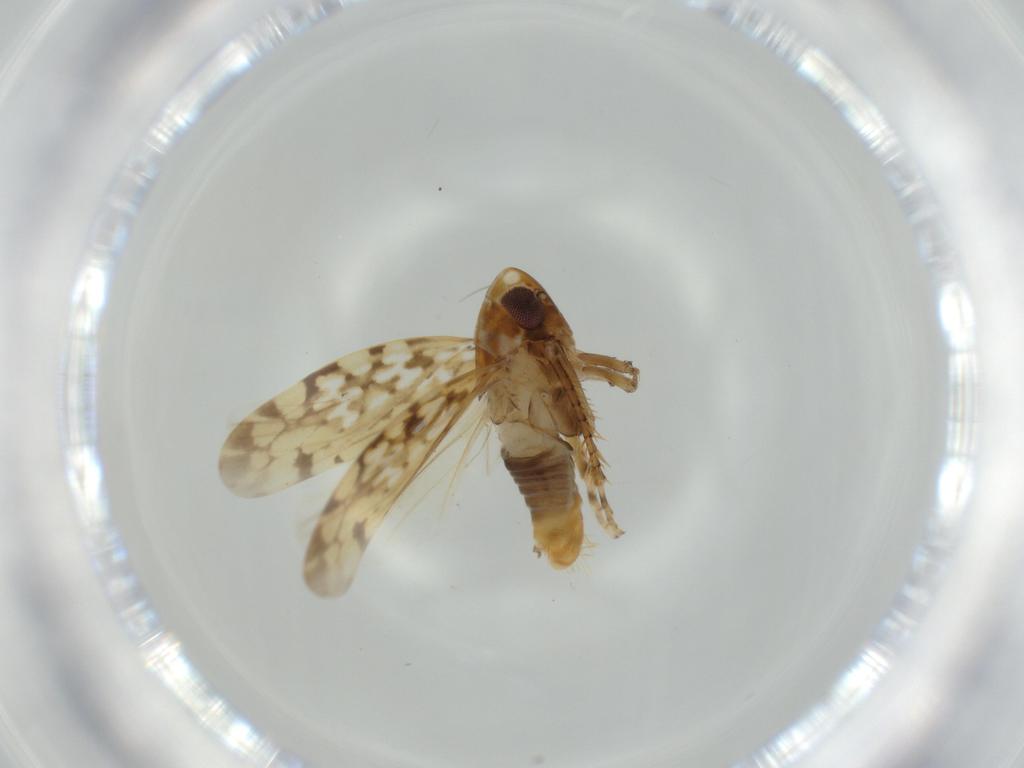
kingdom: Animalia
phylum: Arthropoda
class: Insecta
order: Hemiptera
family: Cicadellidae
